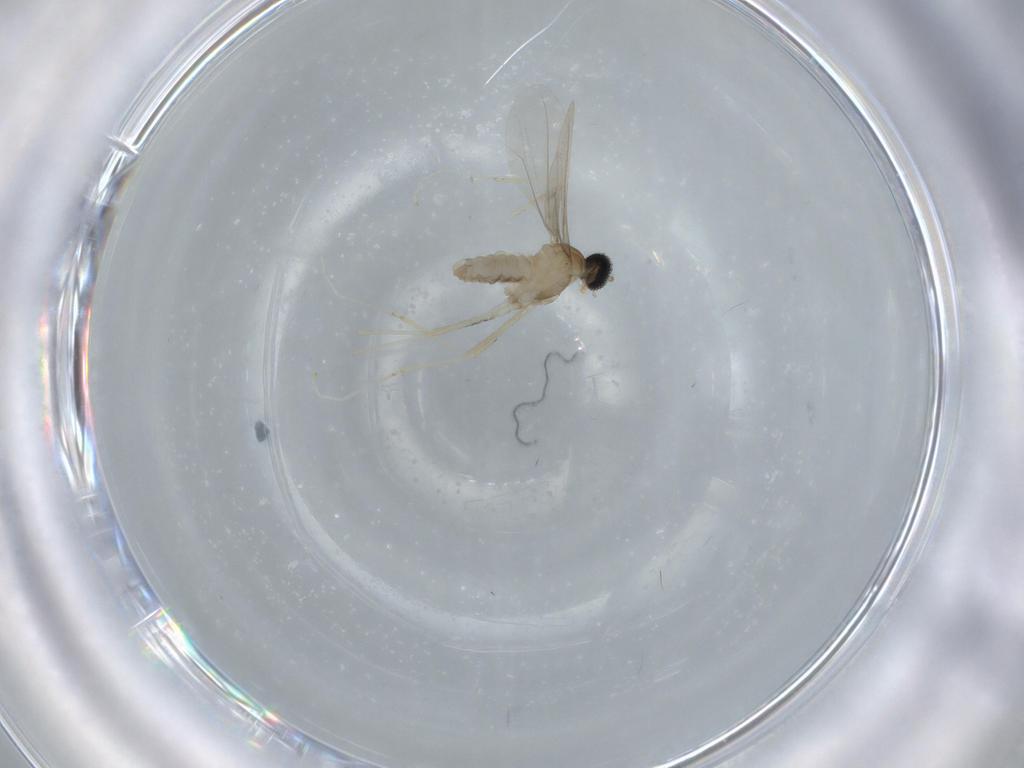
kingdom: Animalia
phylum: Arthropoda
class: Insecta
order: Diptera
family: Cecidomyiidae
